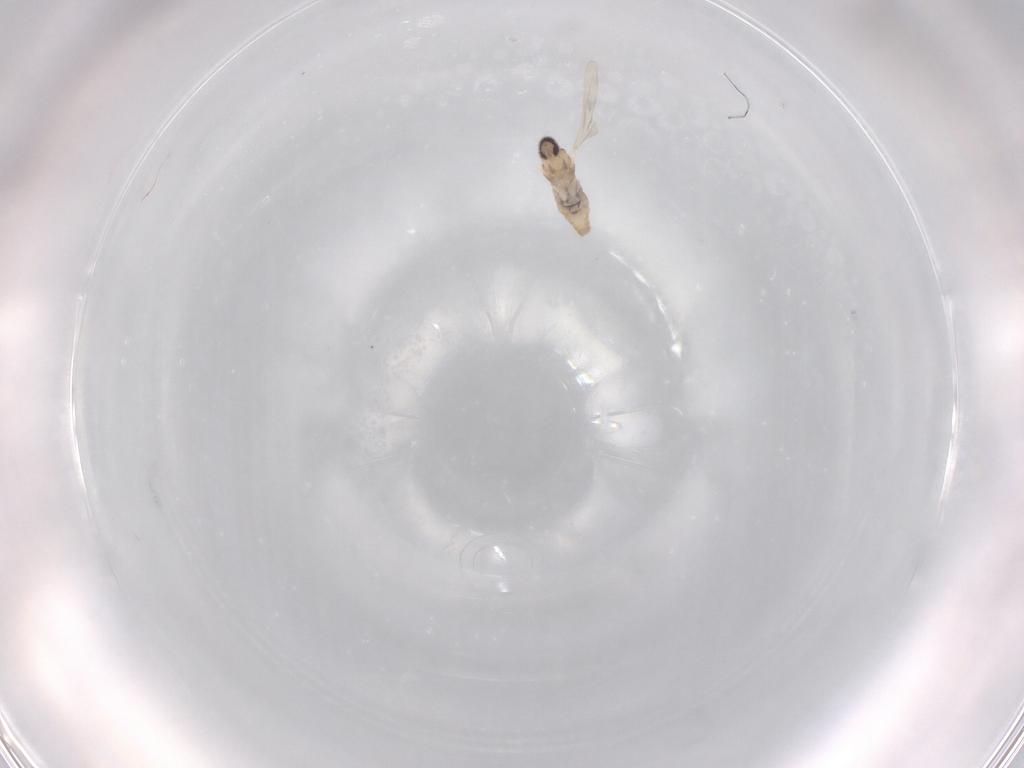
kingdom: Animalia
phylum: Arthropoda
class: Insecta
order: Diptera
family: Cecidomyiidae
